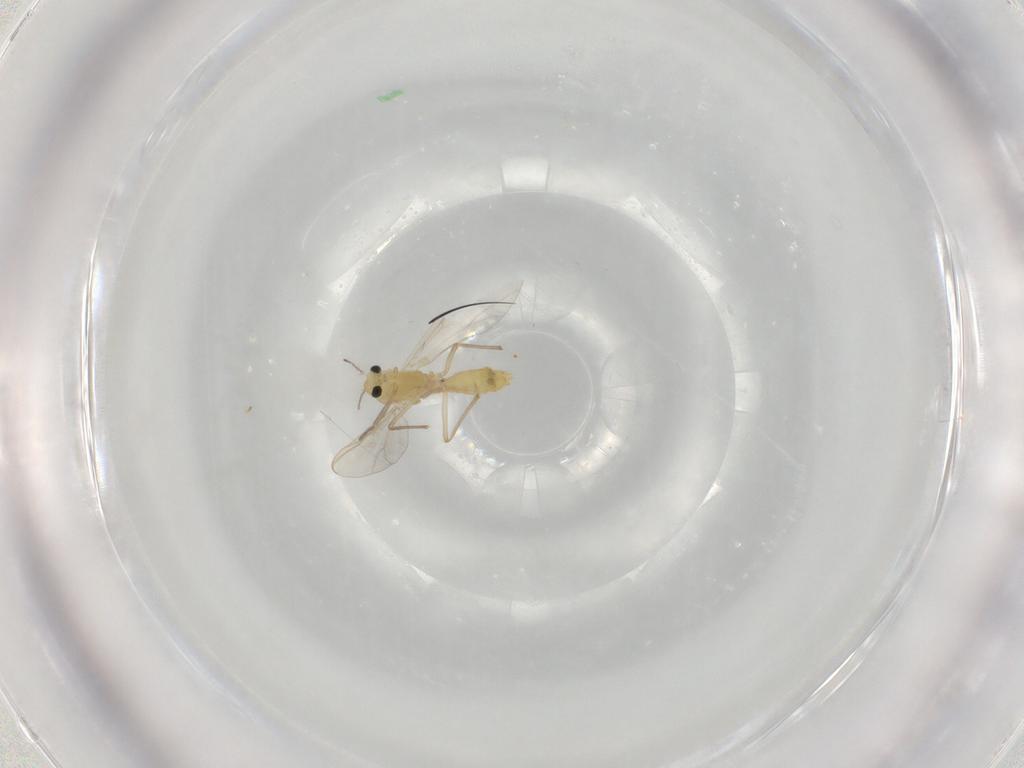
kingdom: Animalia
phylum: Arthropoda
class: Insecta
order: Diptera
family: Chironomidae
